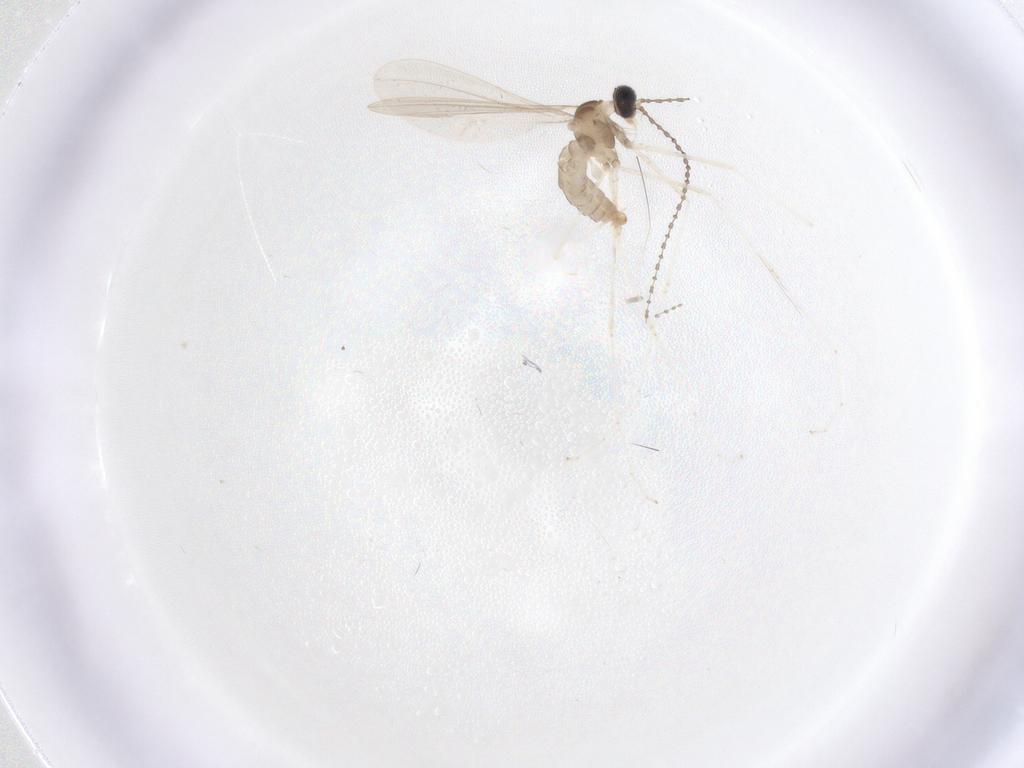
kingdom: Animalia
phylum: Arthropoda
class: Insecta
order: Diptera
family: Cecidomyiidae
